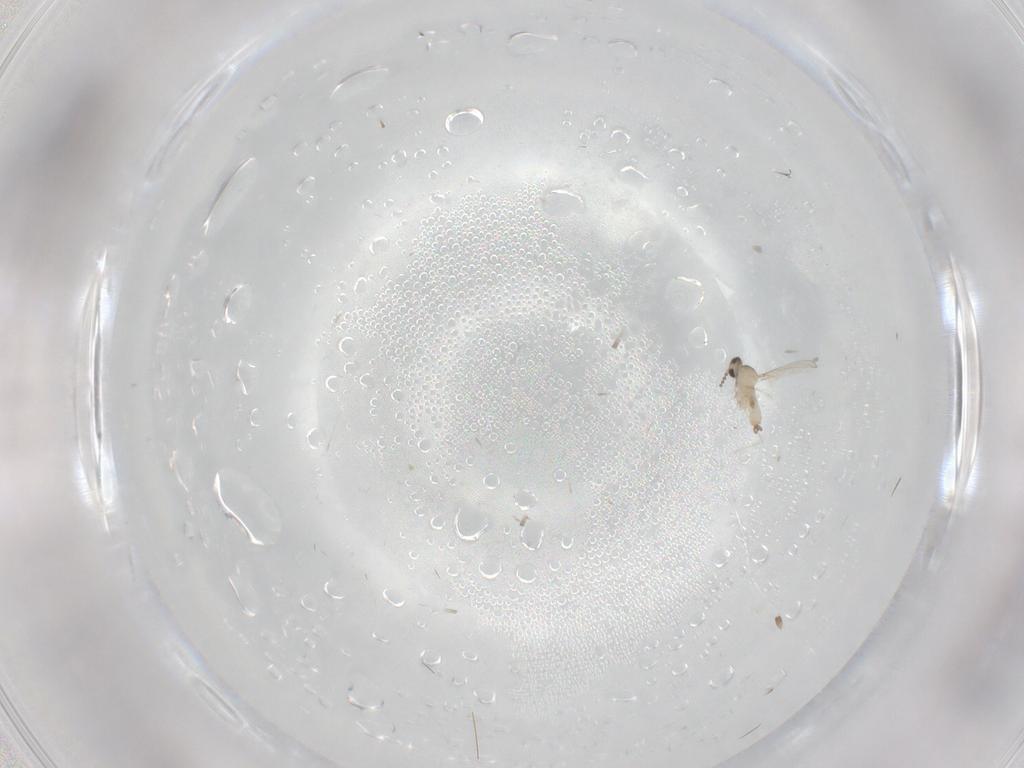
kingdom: Animalia
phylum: Arthropoda
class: Insecta
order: Diptera
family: Cecidomyiidae
